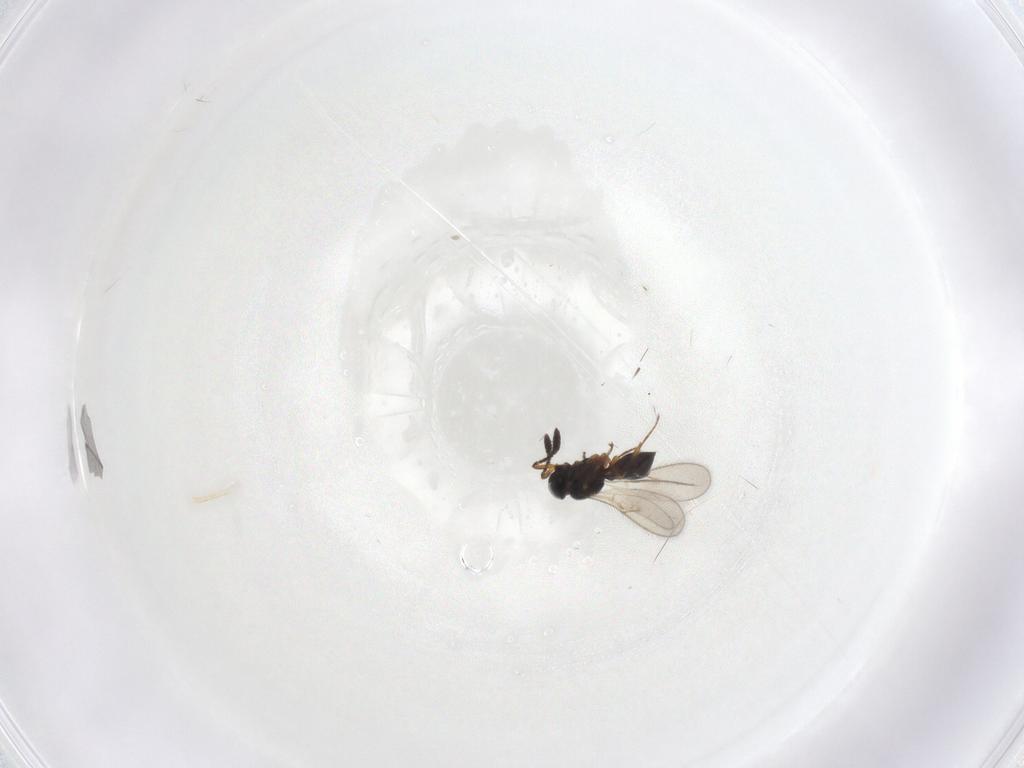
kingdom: Animalia
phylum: Arthropoda
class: Insecta
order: Hymenoptera
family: Scelionidae
